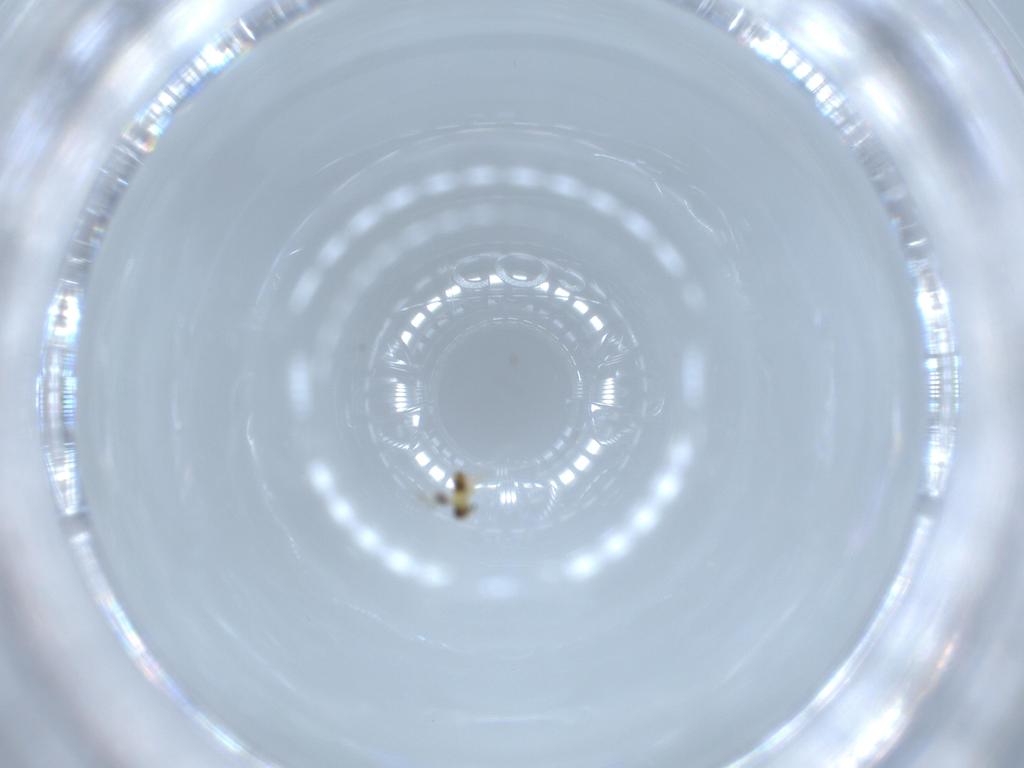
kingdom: Animalia
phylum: Arthropoda
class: Insecta
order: Hymenoptera
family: Signiphoridae
